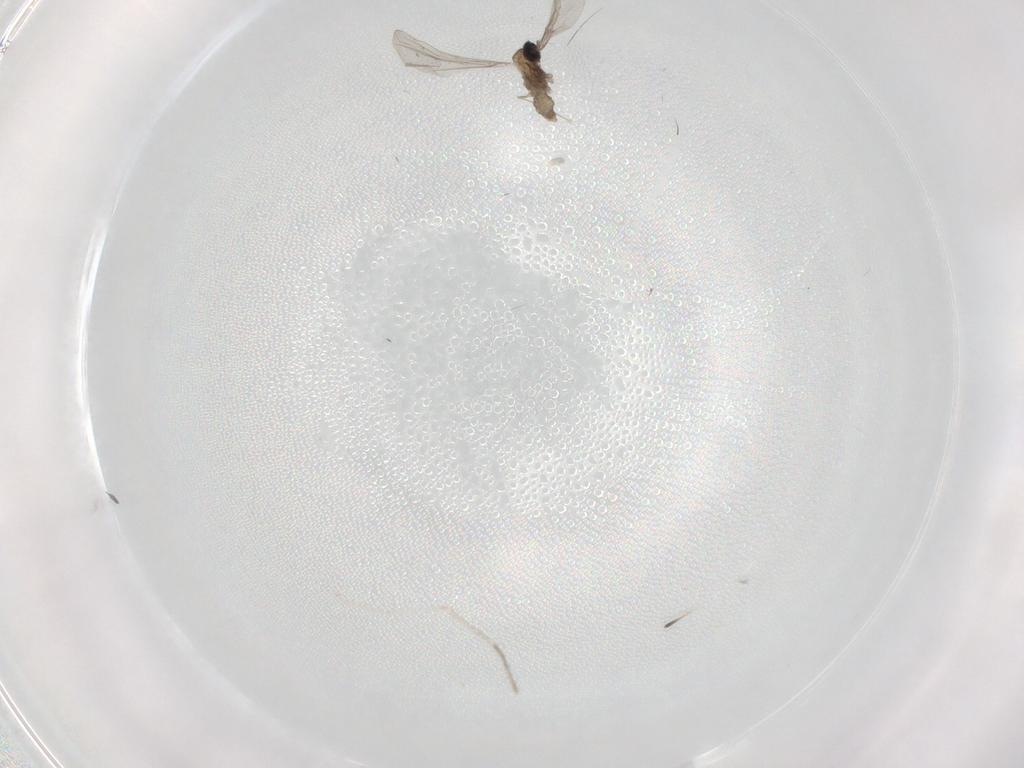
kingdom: Animalia
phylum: Arthropoda
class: Insecta
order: Diptera
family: Cecidomyiidae
